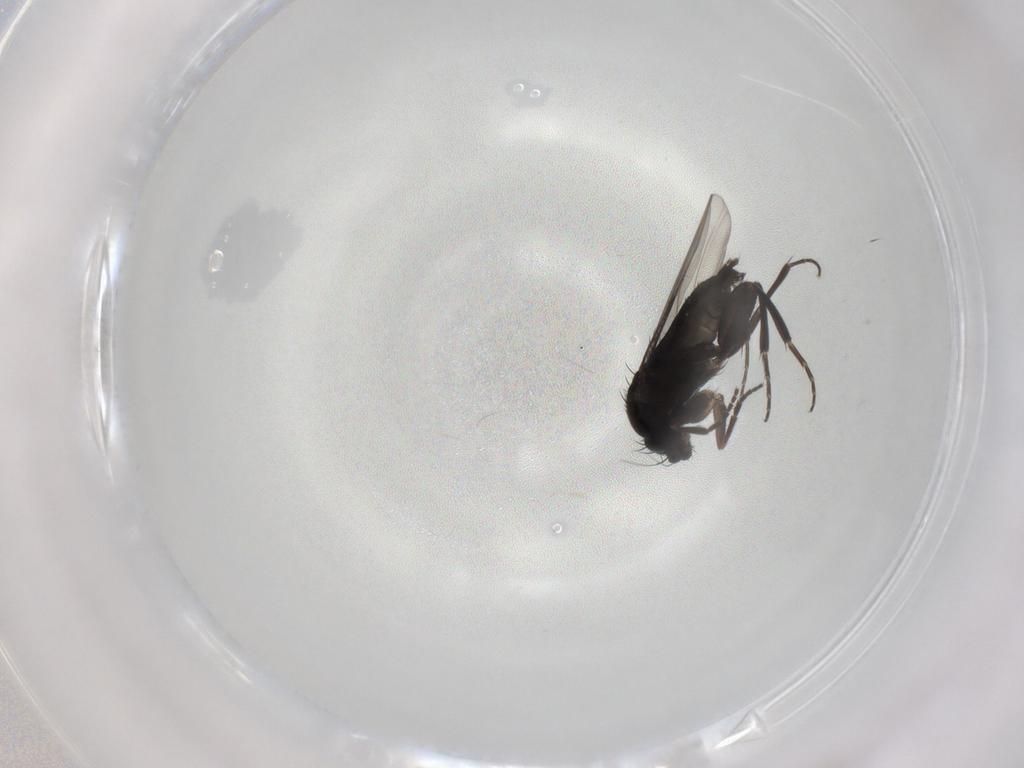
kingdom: Animalia
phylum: Arthropoda
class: Insecta
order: Diptera
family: Phoridae
